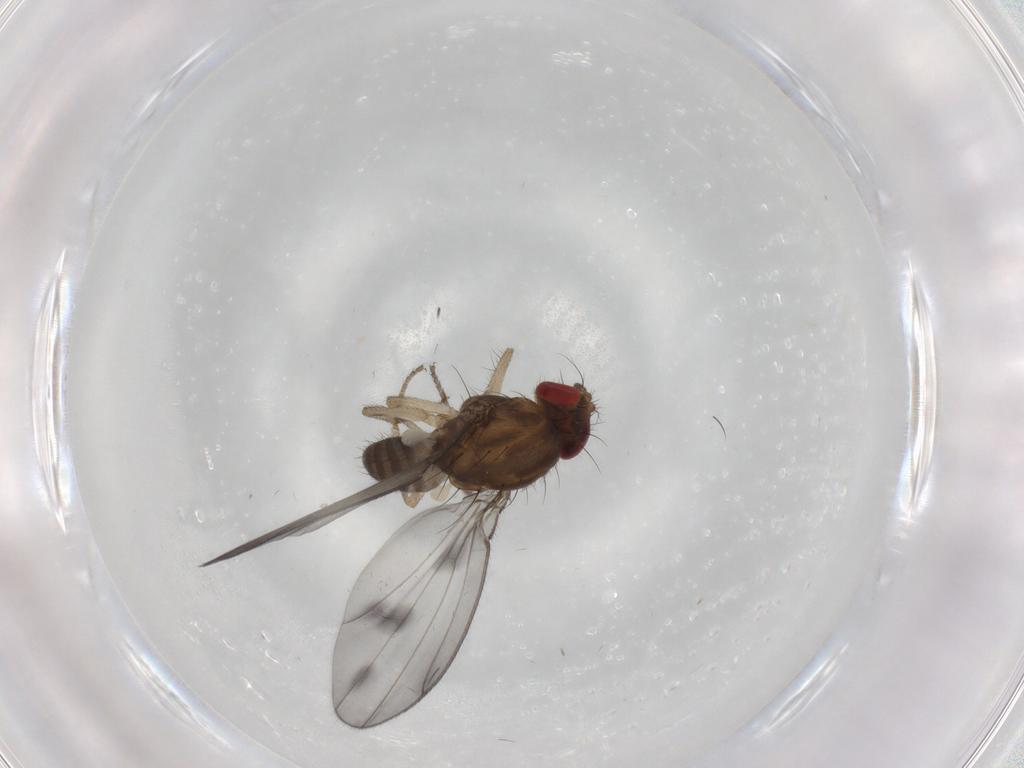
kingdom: Animalia
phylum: Arthropoda
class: Insecta
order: Diptera
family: Drosophilidae
